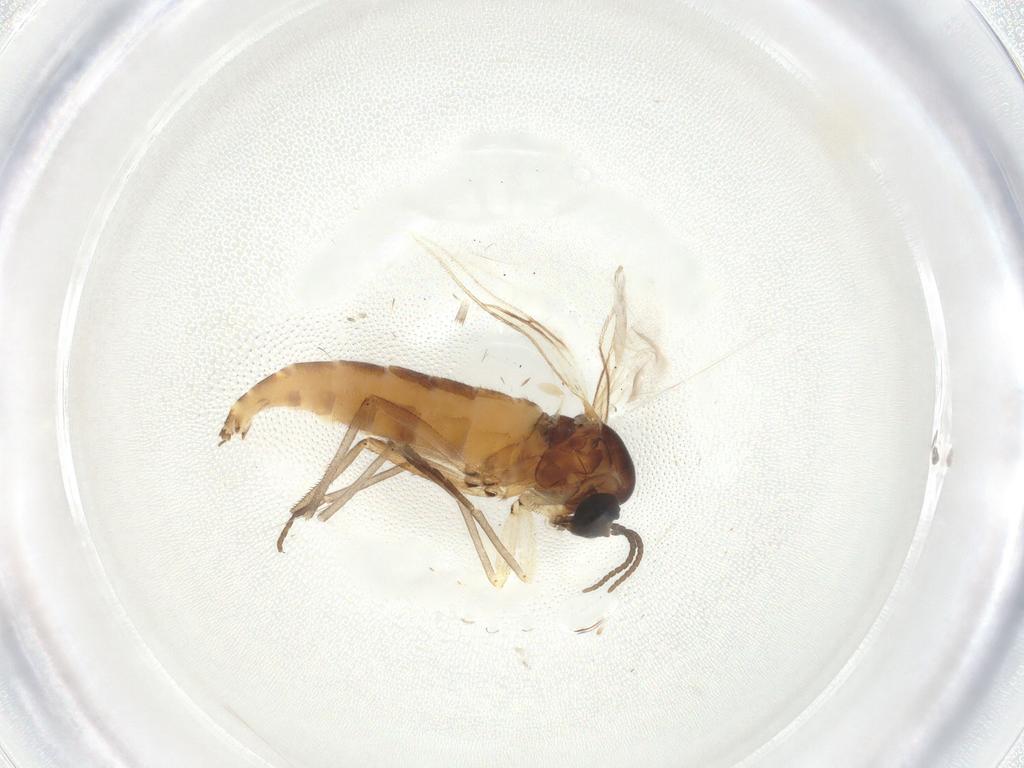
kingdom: Animalia
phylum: Arthropoda
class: Insecta
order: Diptera
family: Sciaridae
